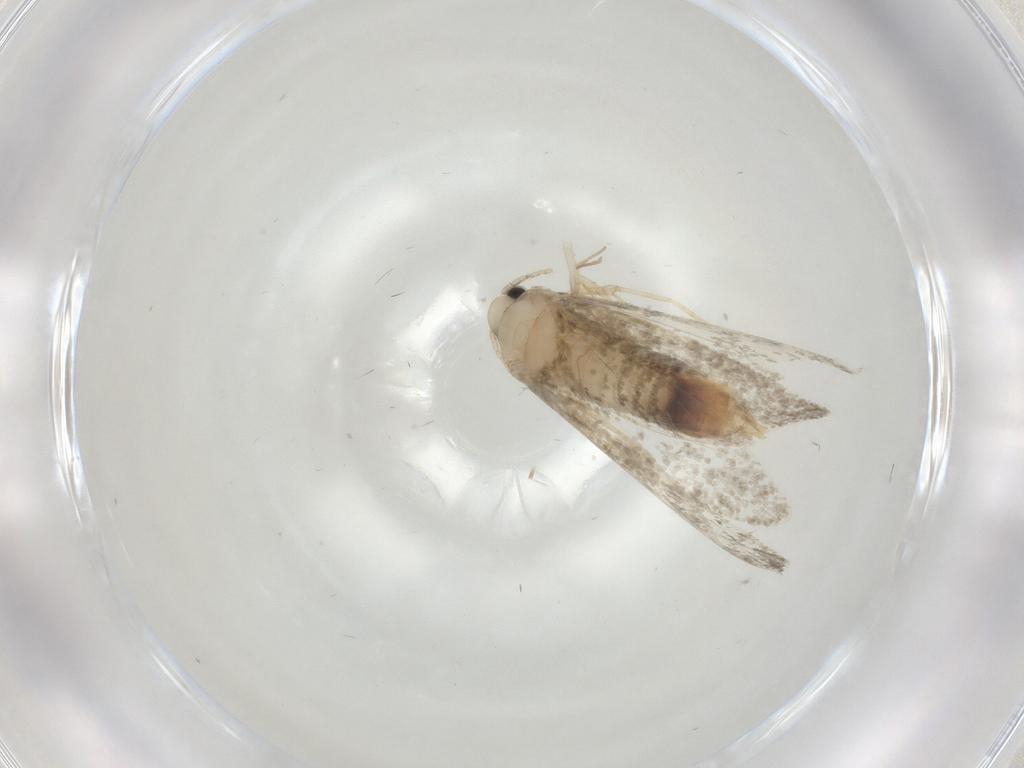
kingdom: Animalia
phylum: Arthropoda
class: Insecta
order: Lepidoptera
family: Psychidae
